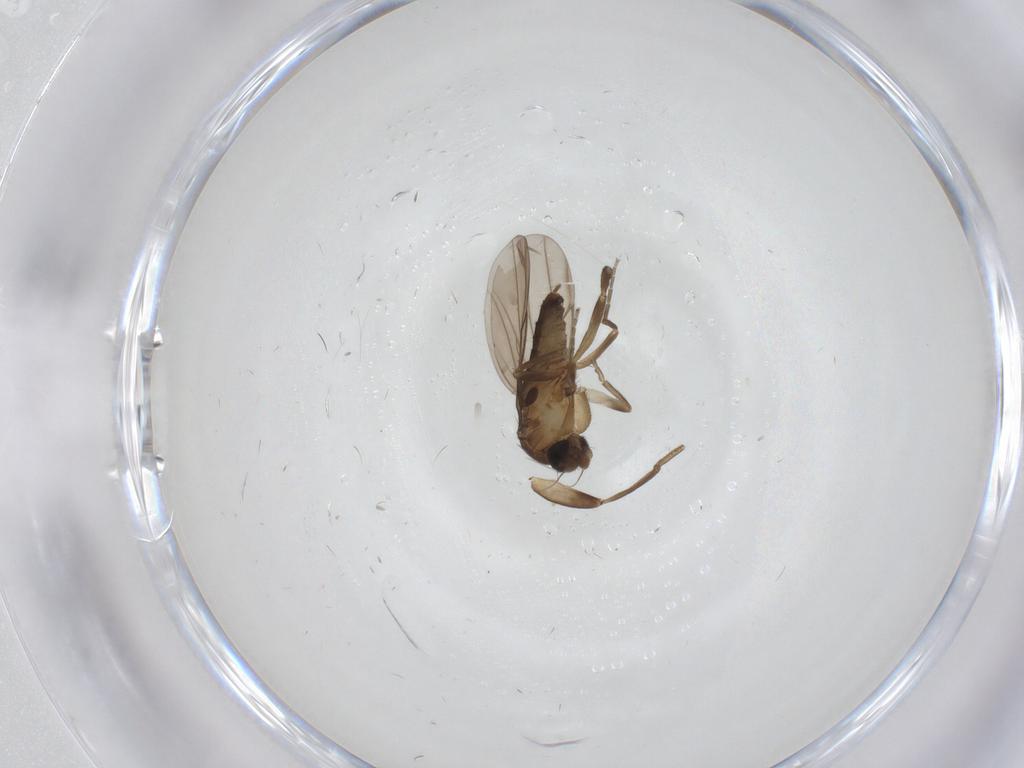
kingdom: Animalia
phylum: Arthropoda
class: Insecta
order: Diptera
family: Cecidomyiidae
